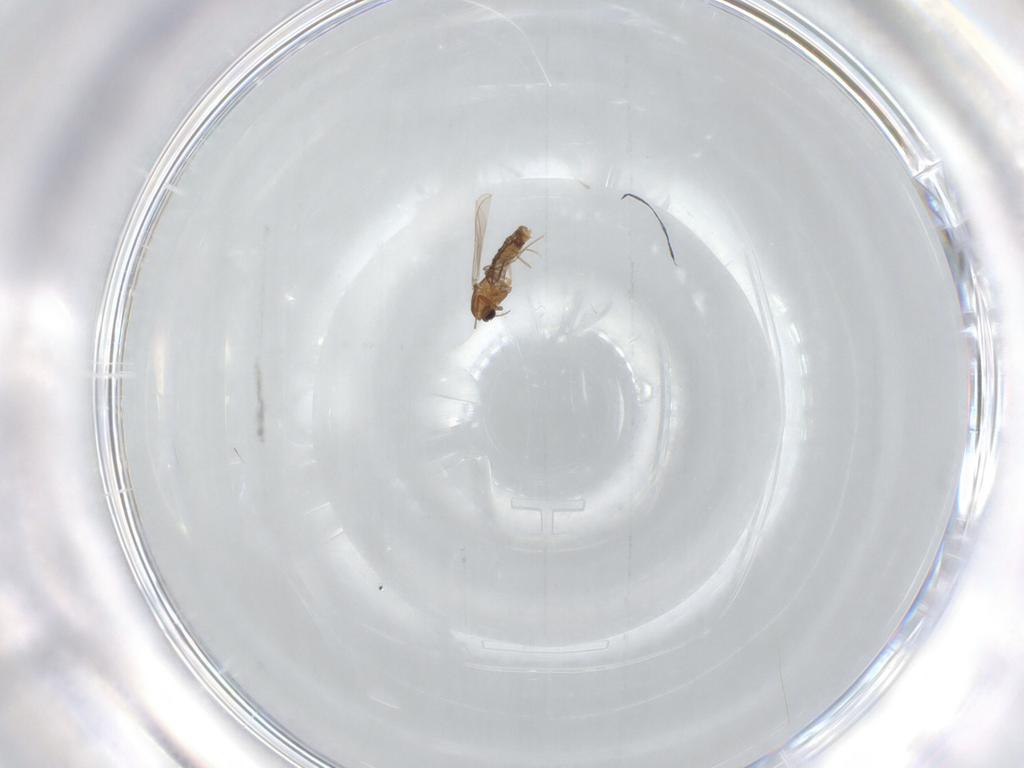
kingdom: Animalia
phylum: Arthropoda
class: Insecta
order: Diptera
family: Chironomidae
